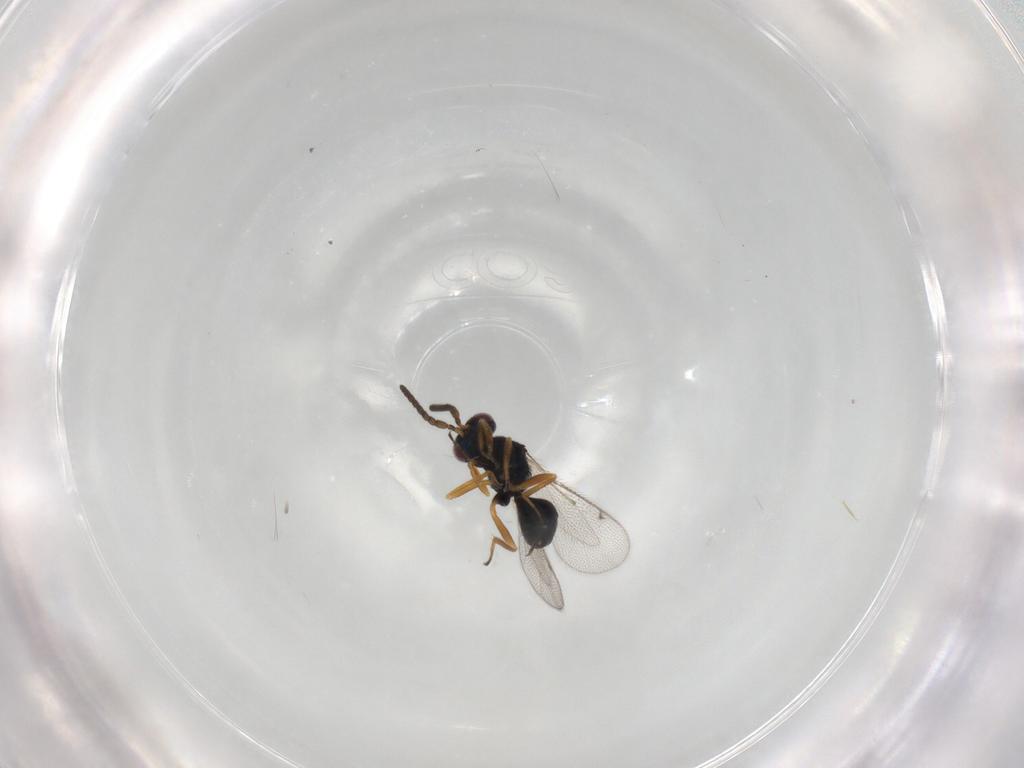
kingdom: Animalia
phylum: Arthropoda
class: Insecta
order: Hymenoptera
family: Tetracampidae
